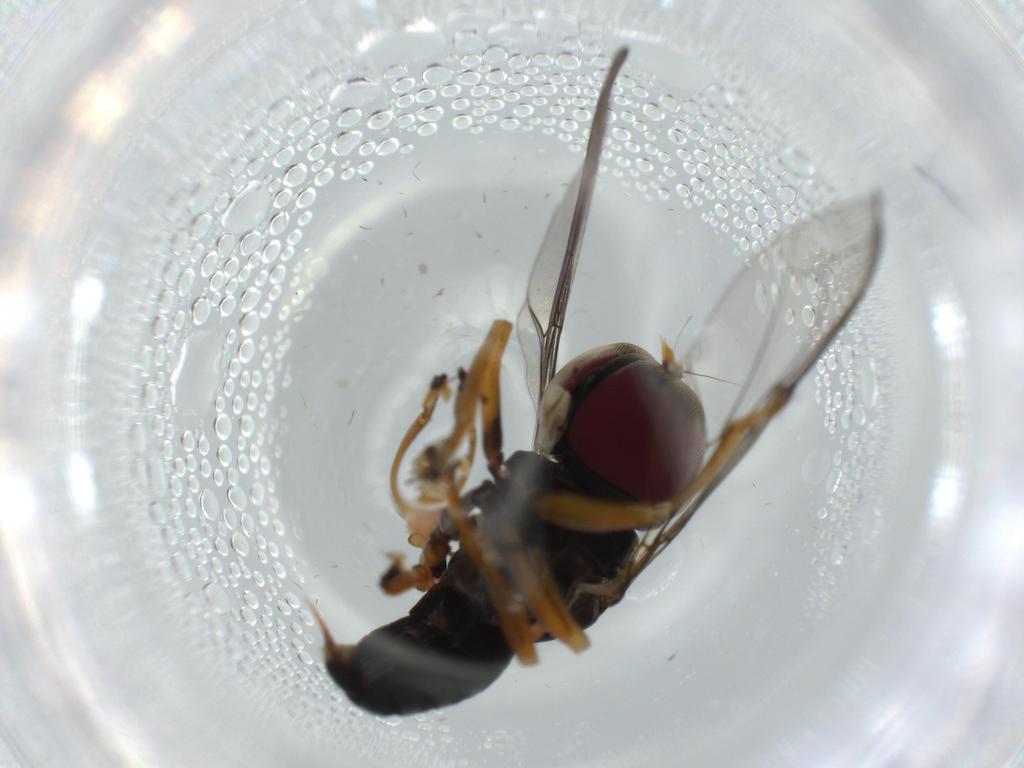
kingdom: Animalia
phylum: Arthropoda
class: Insecta
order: Diptera
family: Pipunculidae
